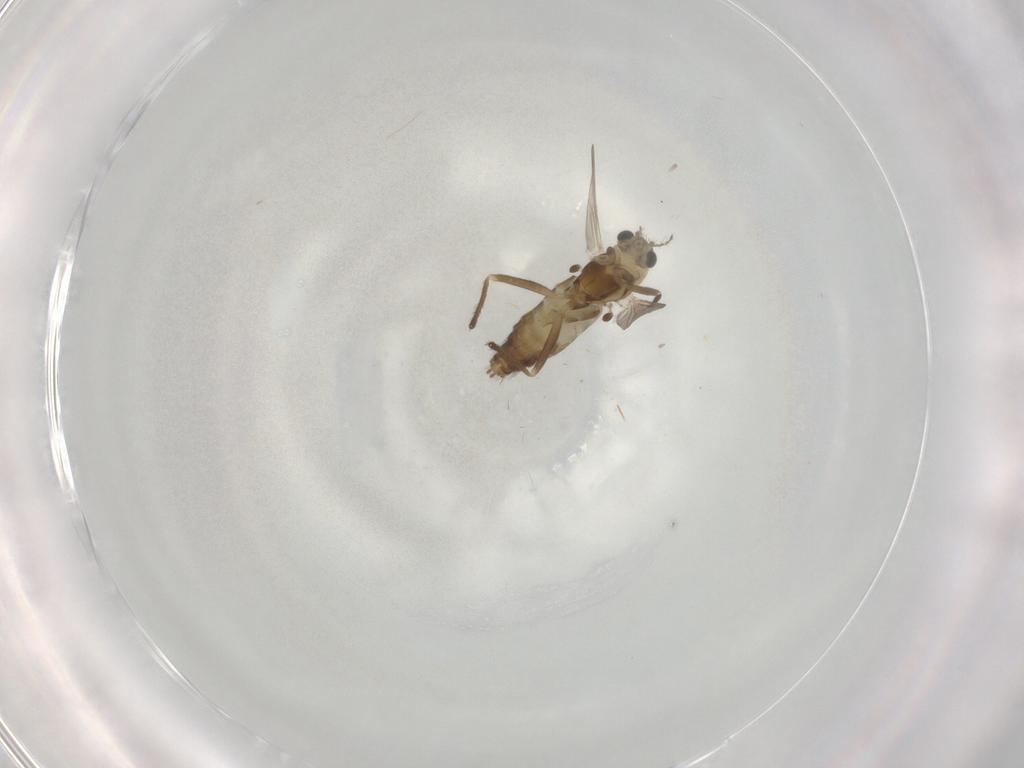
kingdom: Animalia
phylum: Arthropoda
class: Insecta
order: Diptera
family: Chironomidae
